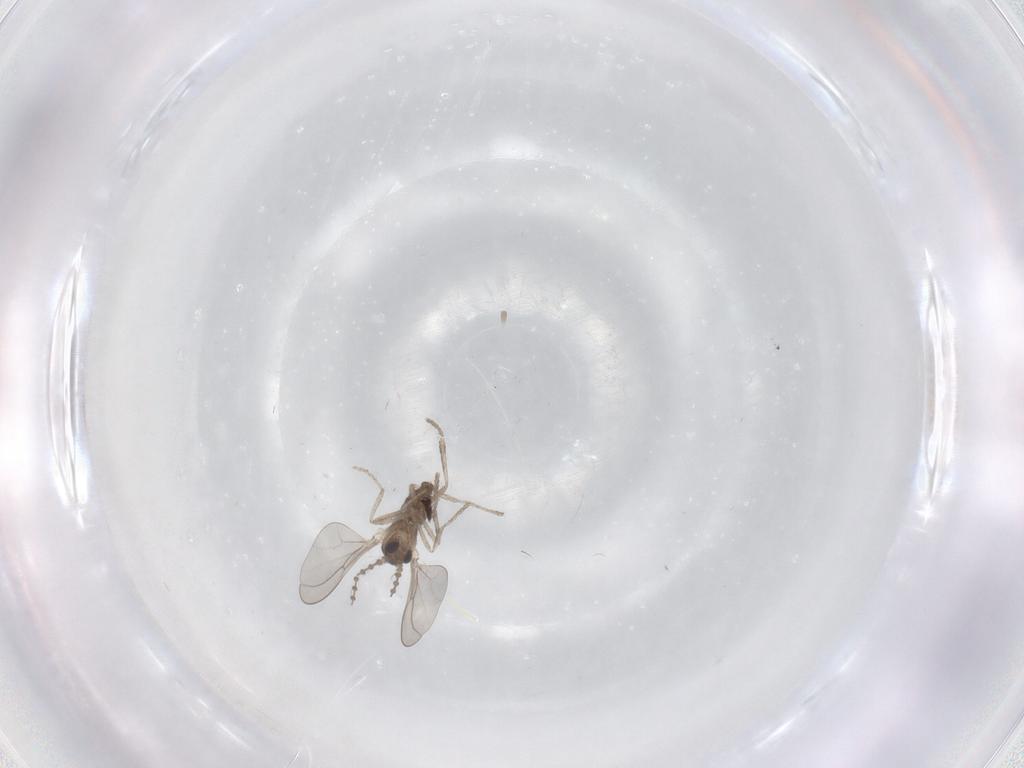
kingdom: Animalia
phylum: Arthropoda
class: Insecta
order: Diptera
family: Cecidomyiidae
